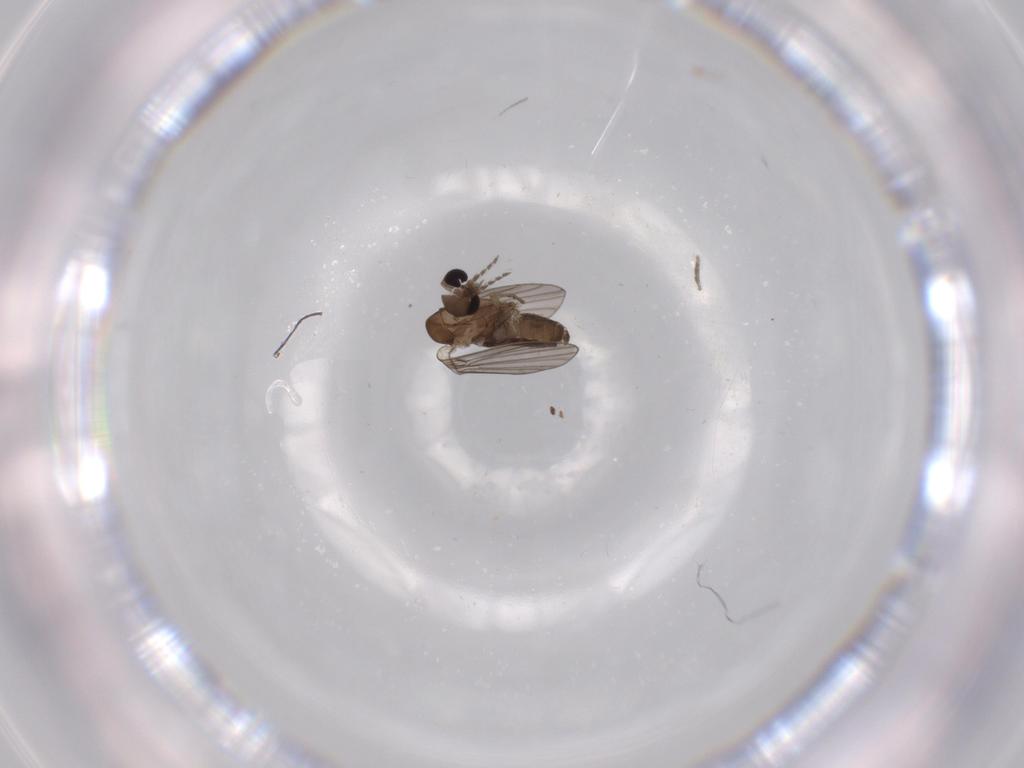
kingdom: Animalia
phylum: Arthropoda
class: Insecta
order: Diptera
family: Psychodidae
